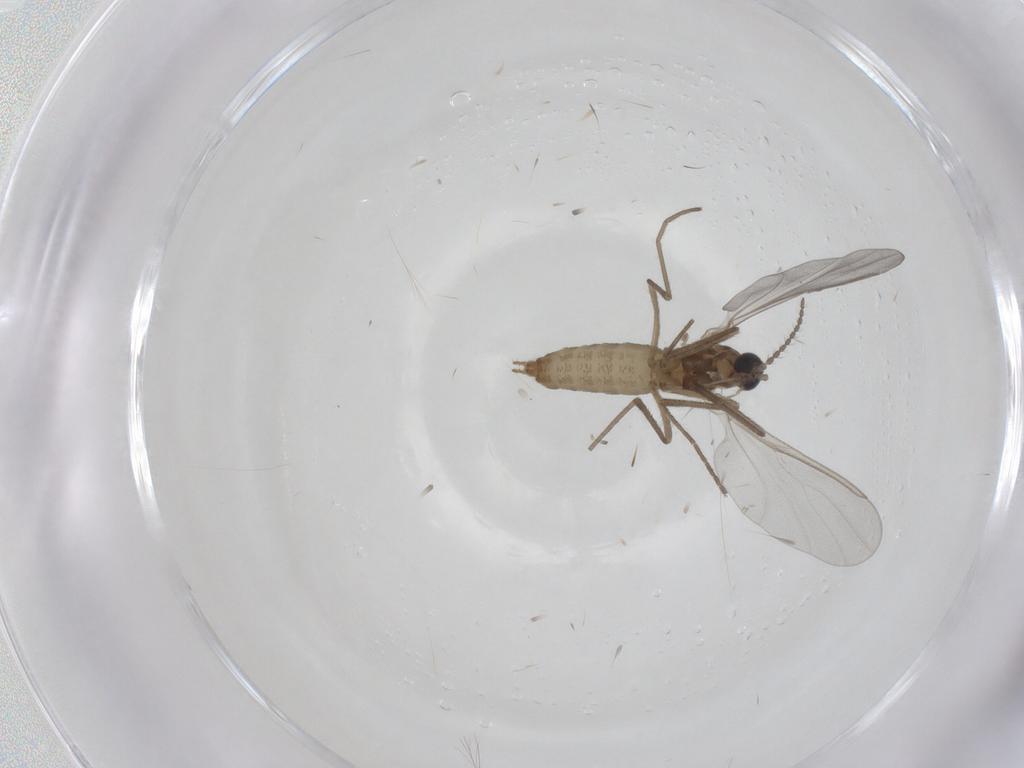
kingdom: Animalia
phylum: Arthropoda
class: Insecta
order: Diptera
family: Cecidomyiidae
